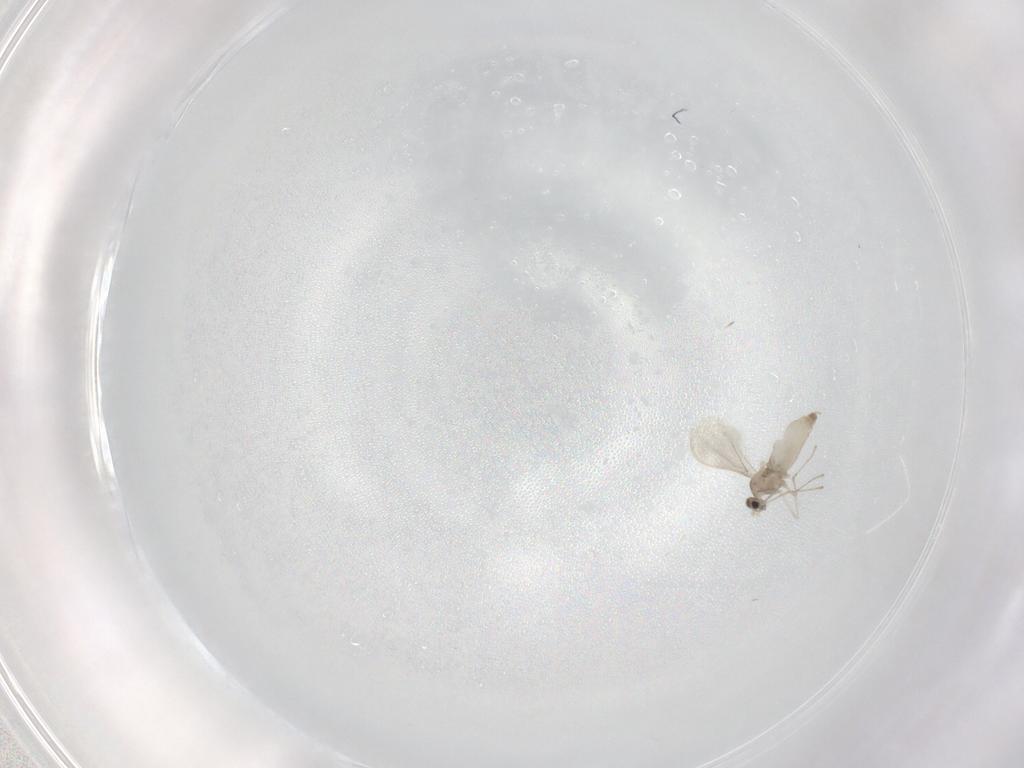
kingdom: Animalia
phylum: Arthropoda
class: Insecta
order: Diptera
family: Cecidomyiidae
